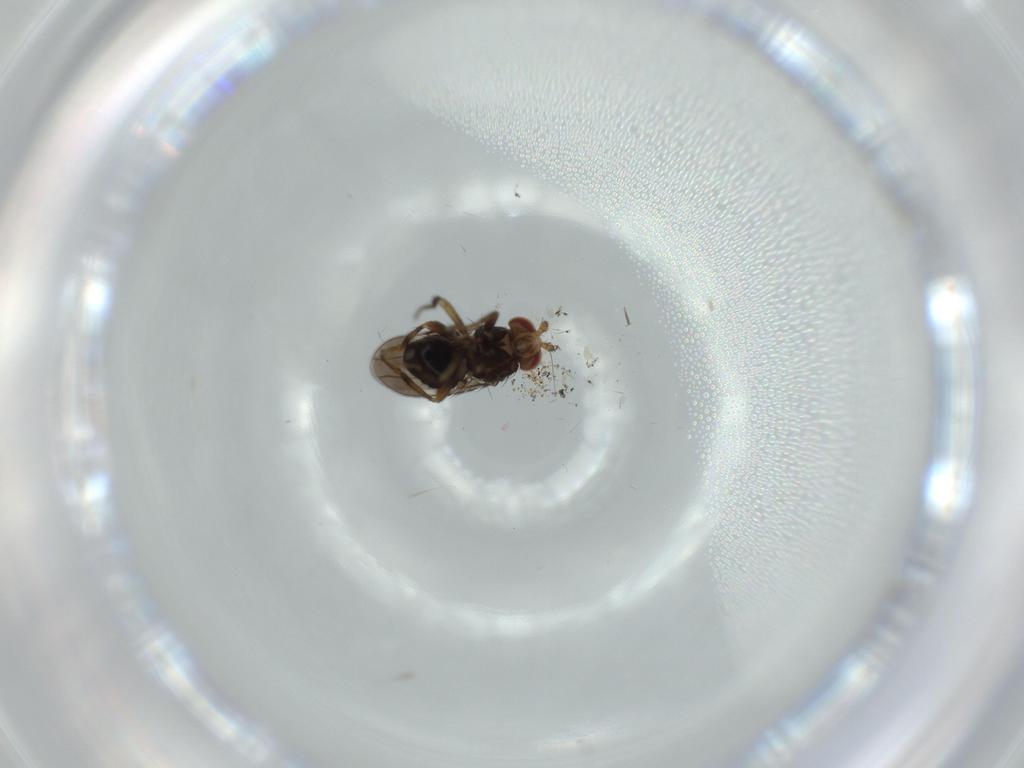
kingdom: Animalia
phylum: Arthropoda
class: Insecta
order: Diptera
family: Sphaeroceridae
